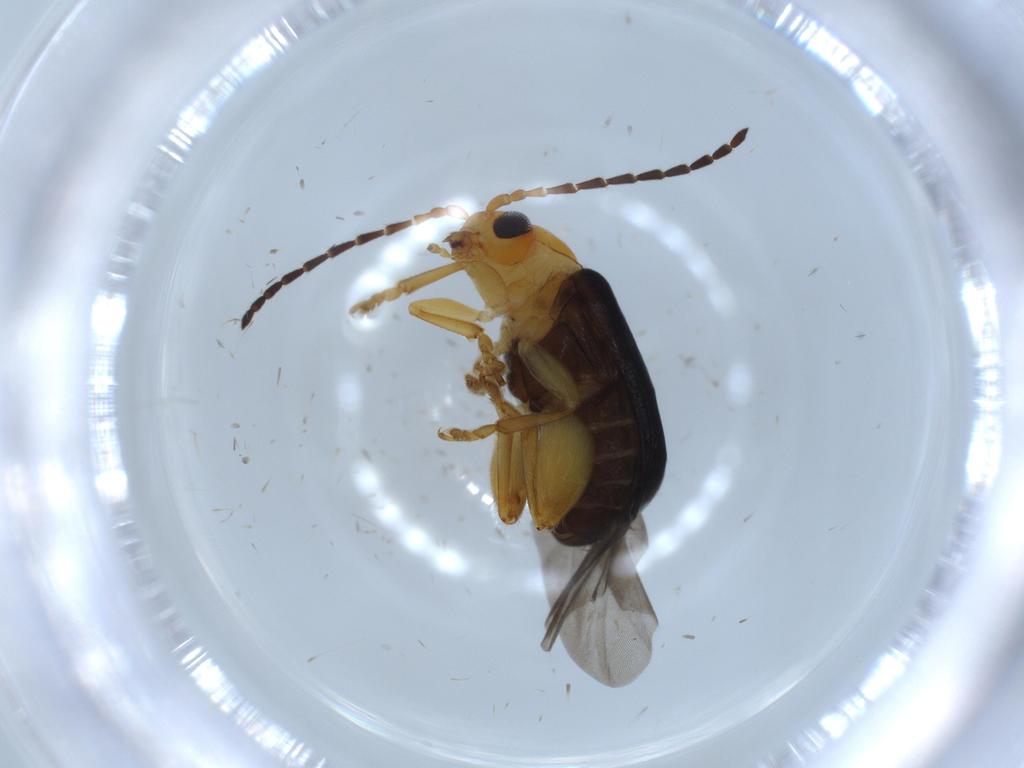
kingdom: Animalia
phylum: Arthropoda
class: Insecta
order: Coleoptera
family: Chrysomelidae
